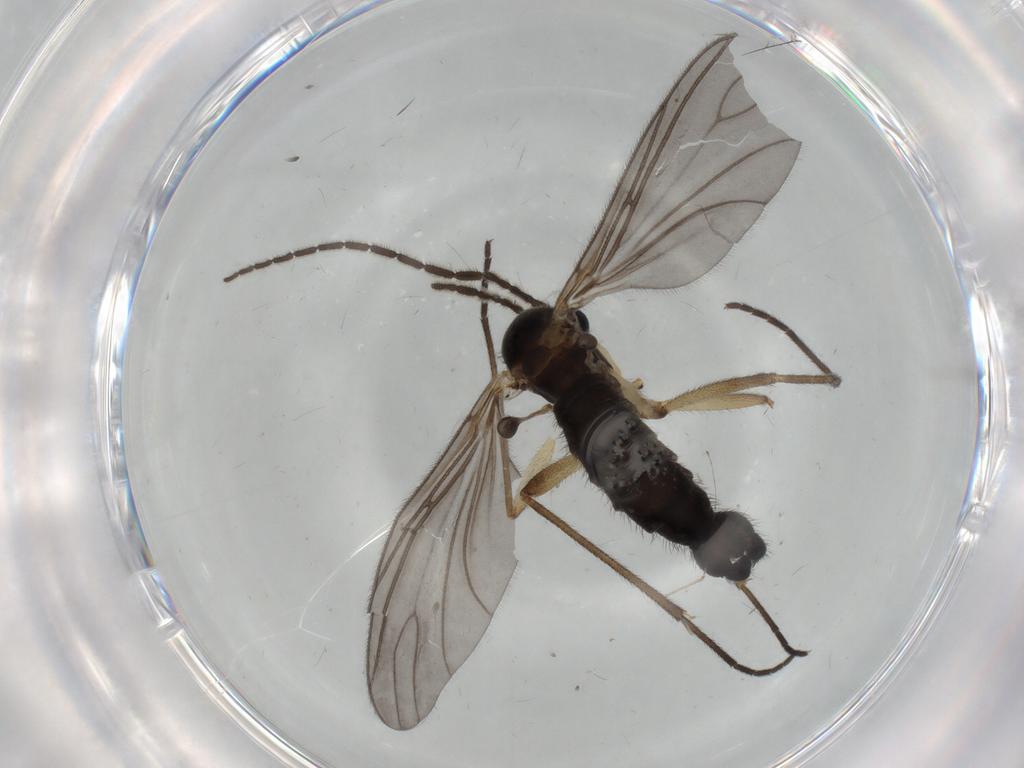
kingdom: Animalia
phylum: Arthropoda
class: Insecta
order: Diptera
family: Sciaridae
